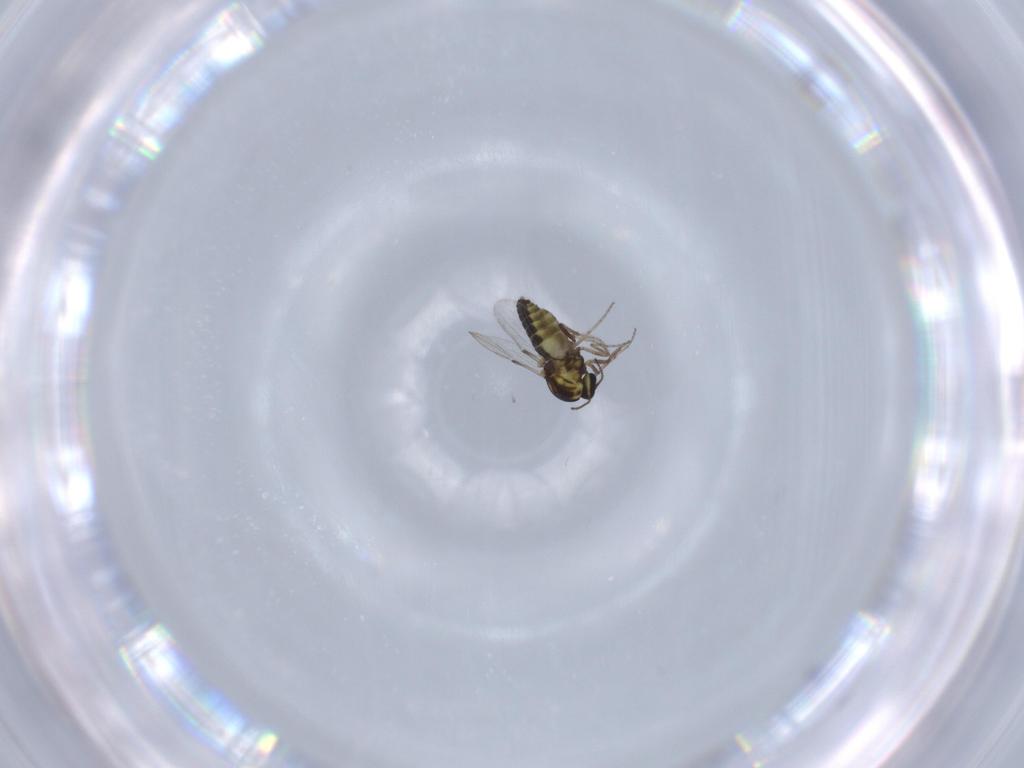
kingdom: Animalia
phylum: Arthropoda
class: Insecta
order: Diptera
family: Ceratopogonidae
